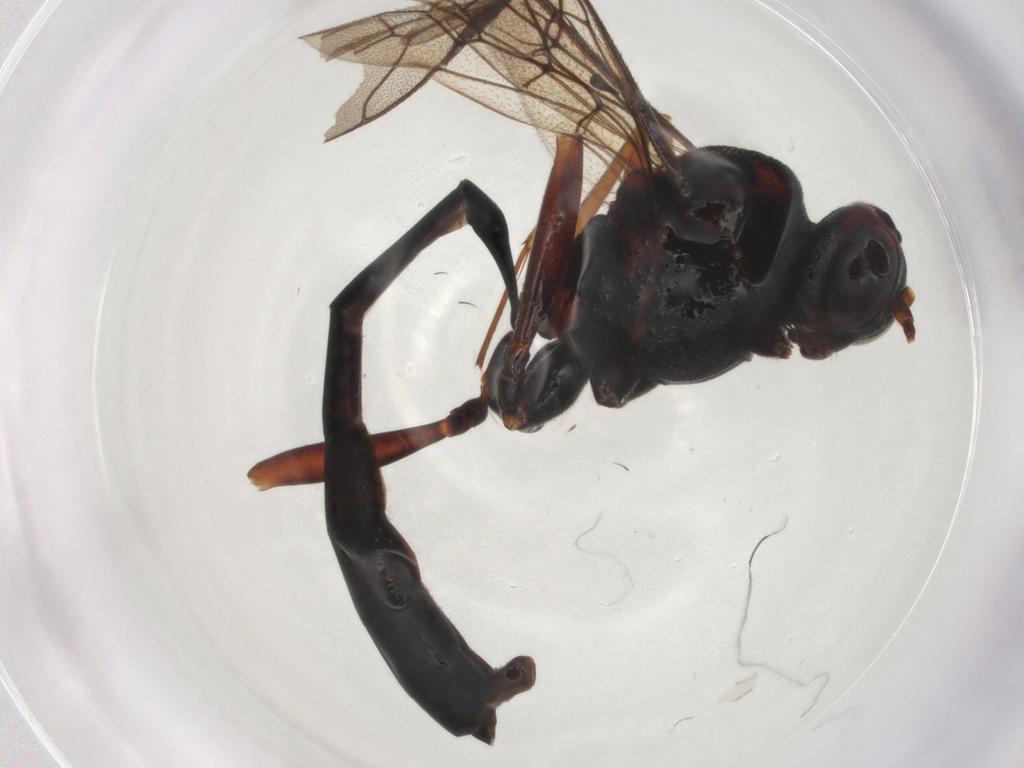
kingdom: Animalia
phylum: Arthropoda
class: Insecta
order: Hymenoptera
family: Ichneumonidae
